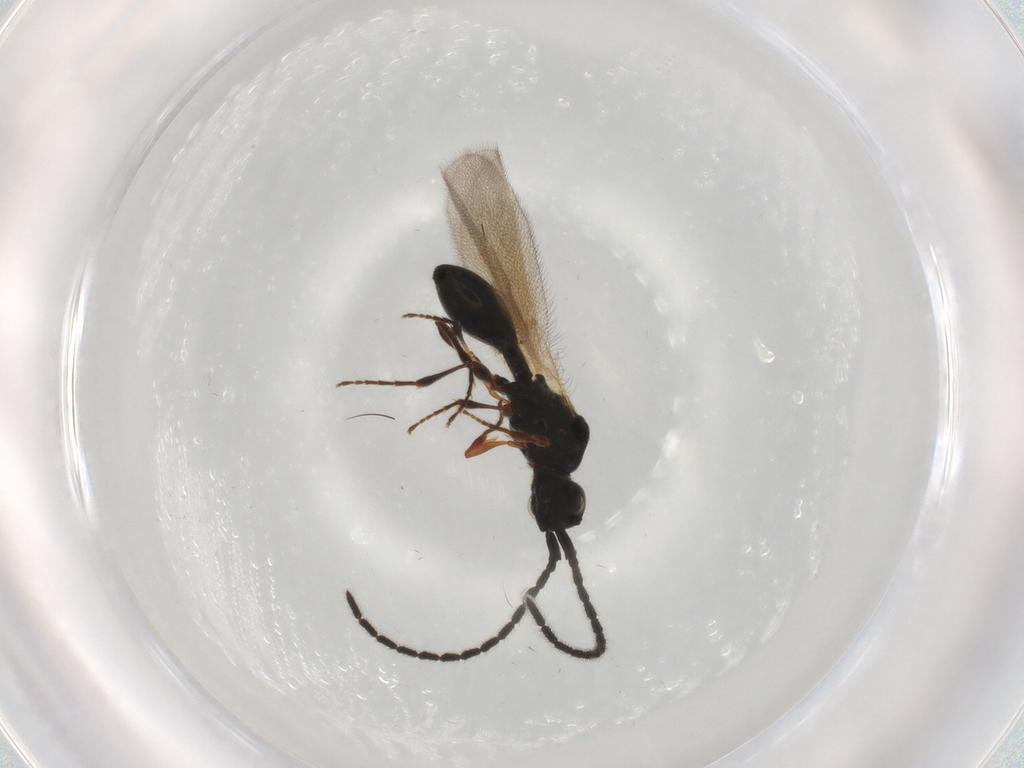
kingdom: Animalia
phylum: Arthropoda
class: Insecta
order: Hymenoptera
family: Diapriidae
